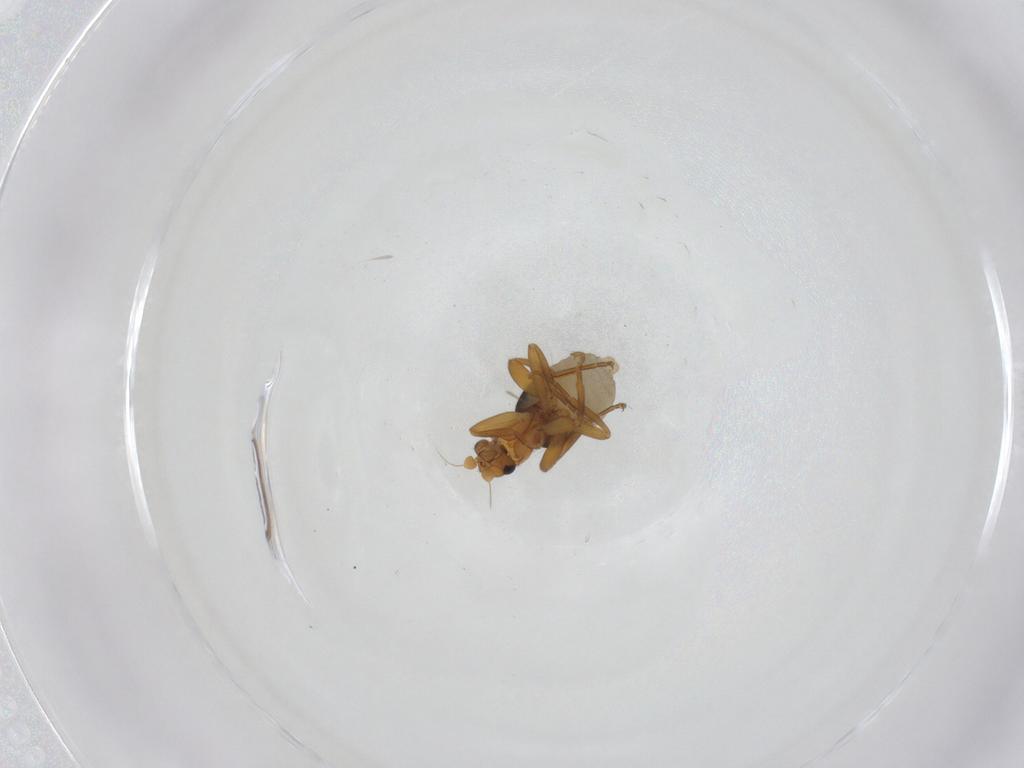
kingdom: Animalia
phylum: Arthropoda
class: Insecta
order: Diptera
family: Phoridae
